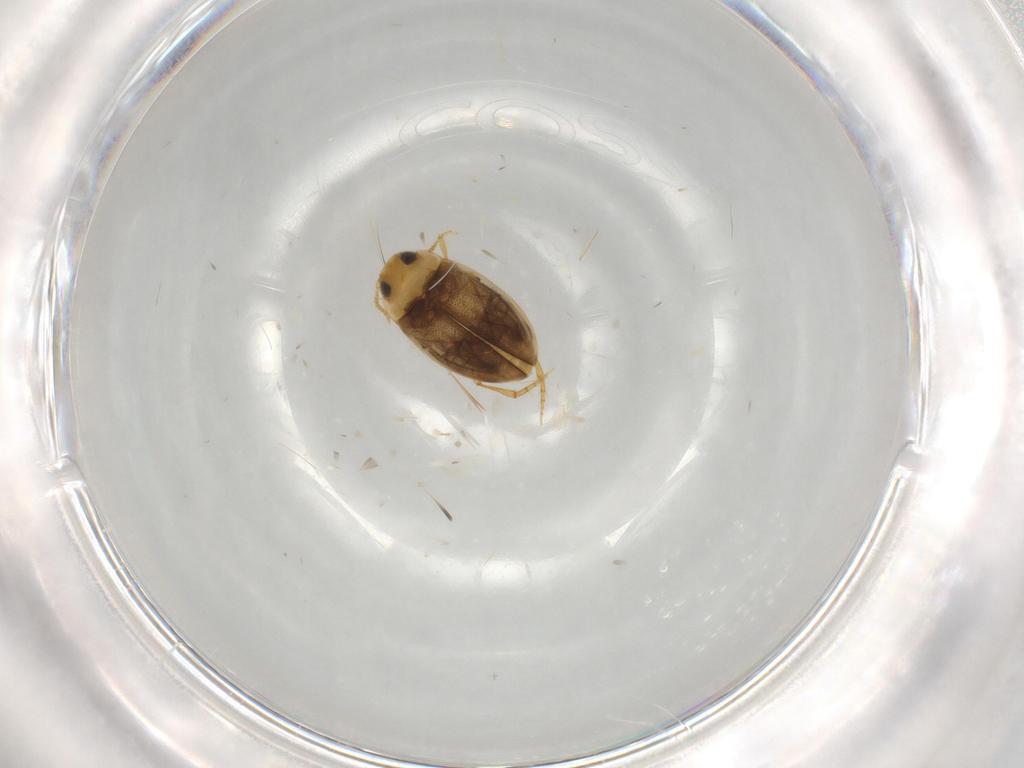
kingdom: Animalia
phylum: Arthropoda
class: Insecta
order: Coleoptera
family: Dytiscidae
